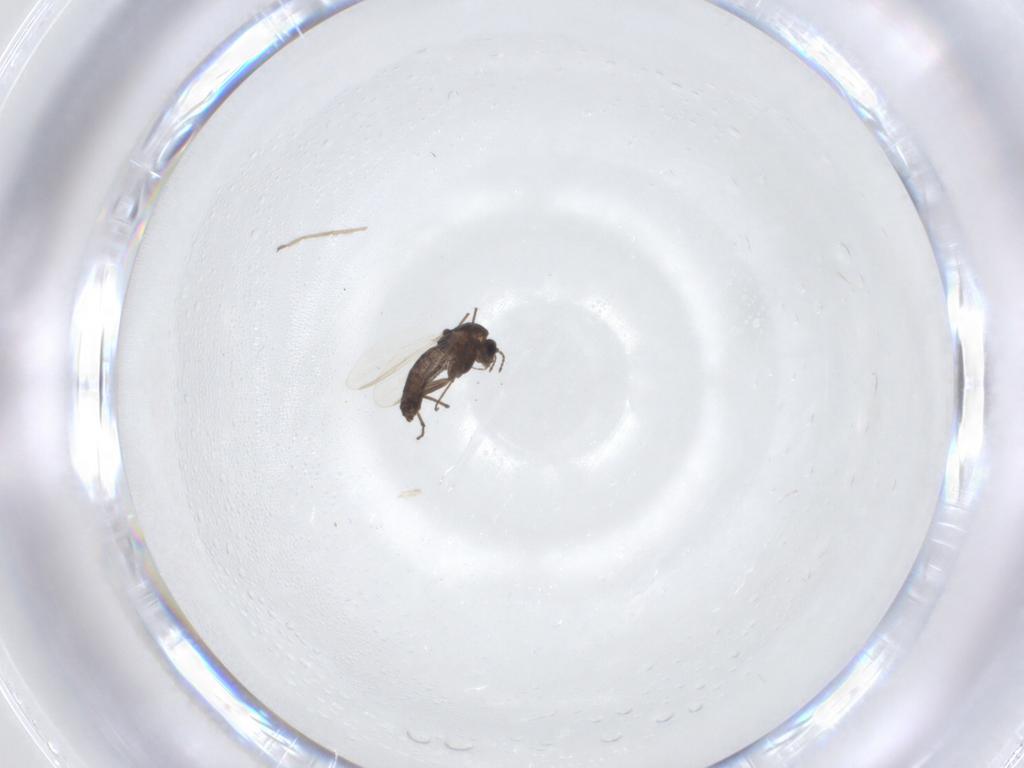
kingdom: Animalia
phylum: Arthropoda
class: Insecta
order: Diptera
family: Chironomidae
